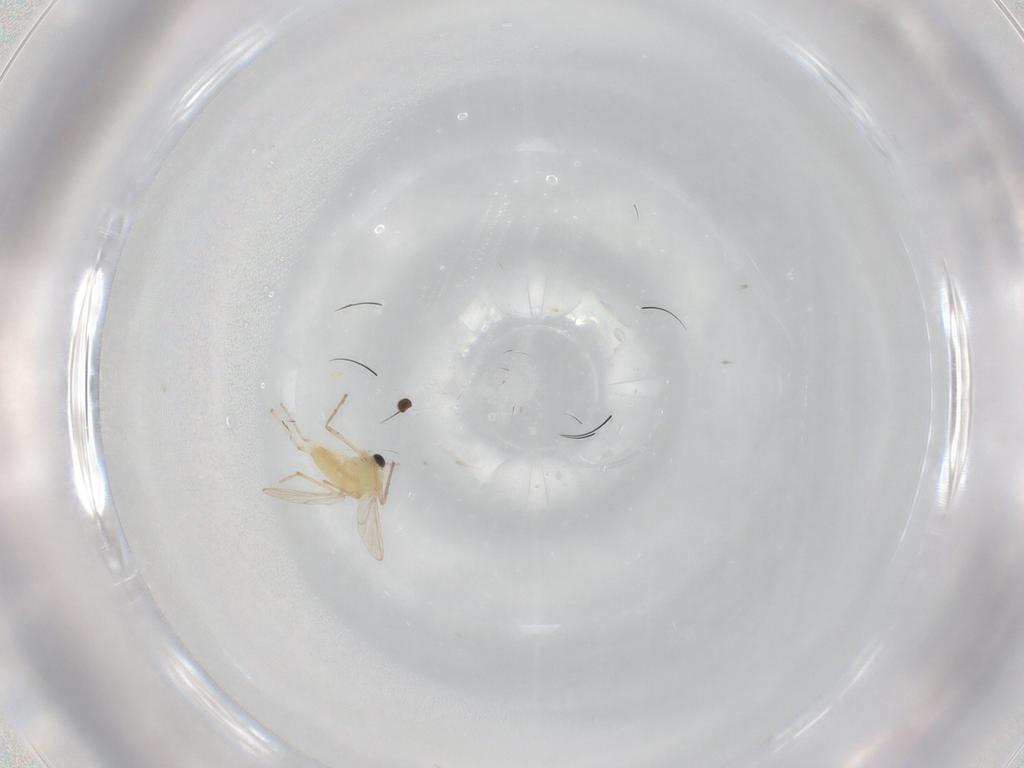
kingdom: Animalia
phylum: Arthropoda
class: Insecta
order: Diptera
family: Chironomidae
